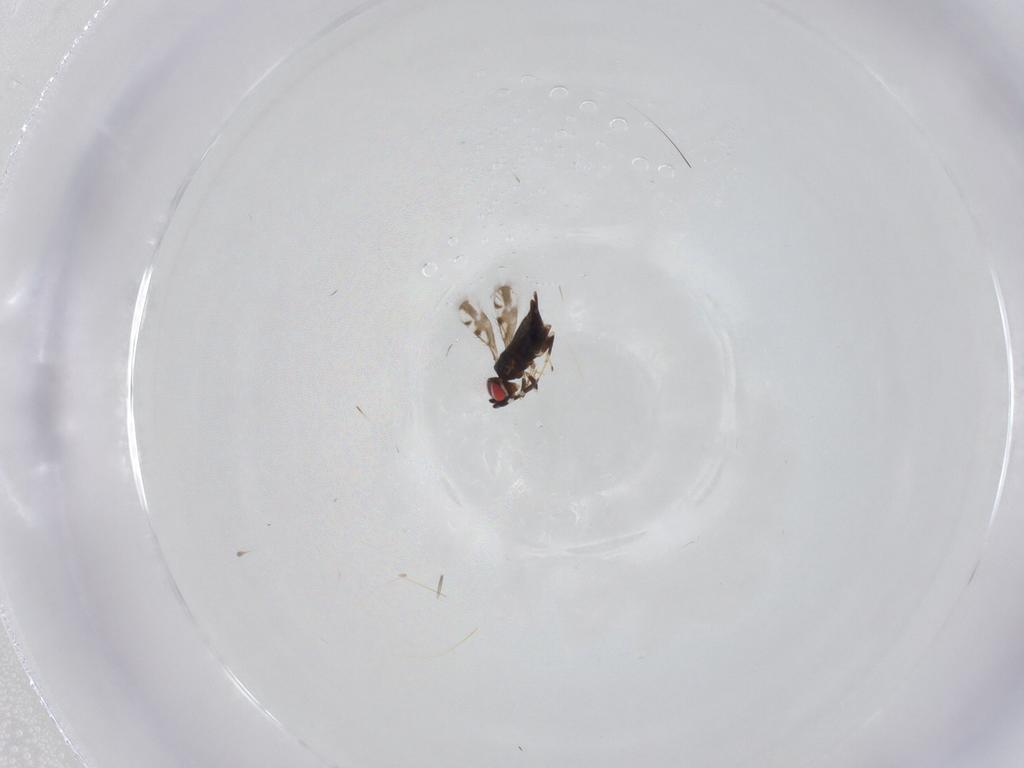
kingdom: Animalia
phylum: Arthropoda
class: Insecta
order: Hymenoptera
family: Azotidae
